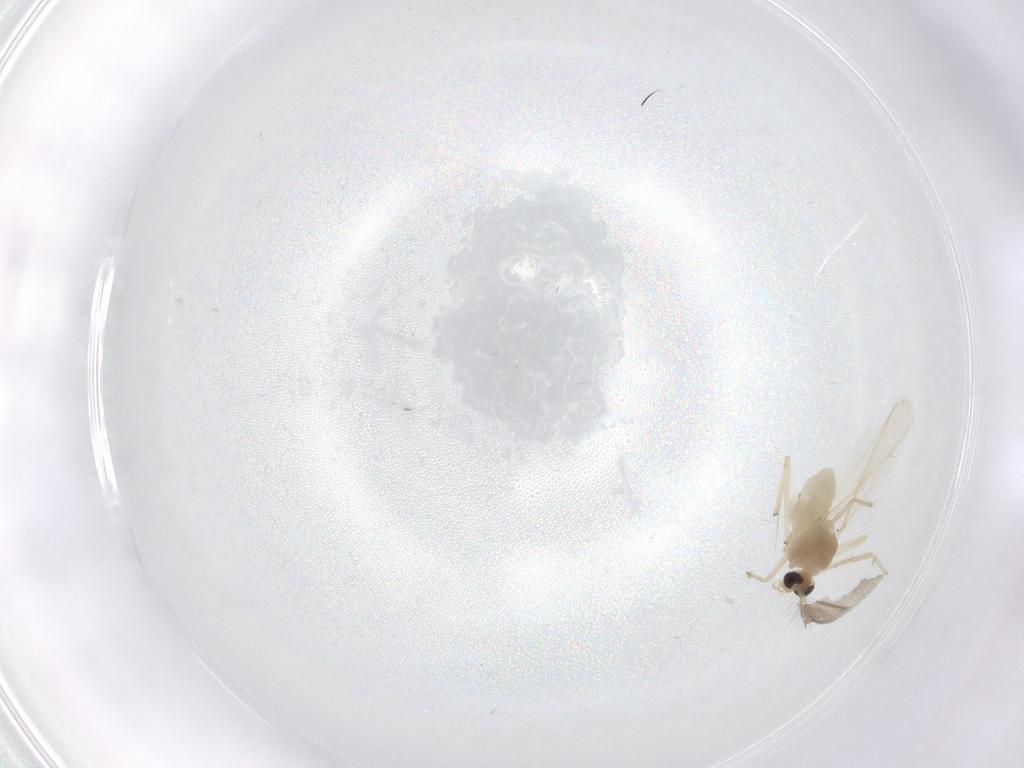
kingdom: Animalia
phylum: Arthropoda
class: Insecta
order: Diptera
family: Chironomidae
